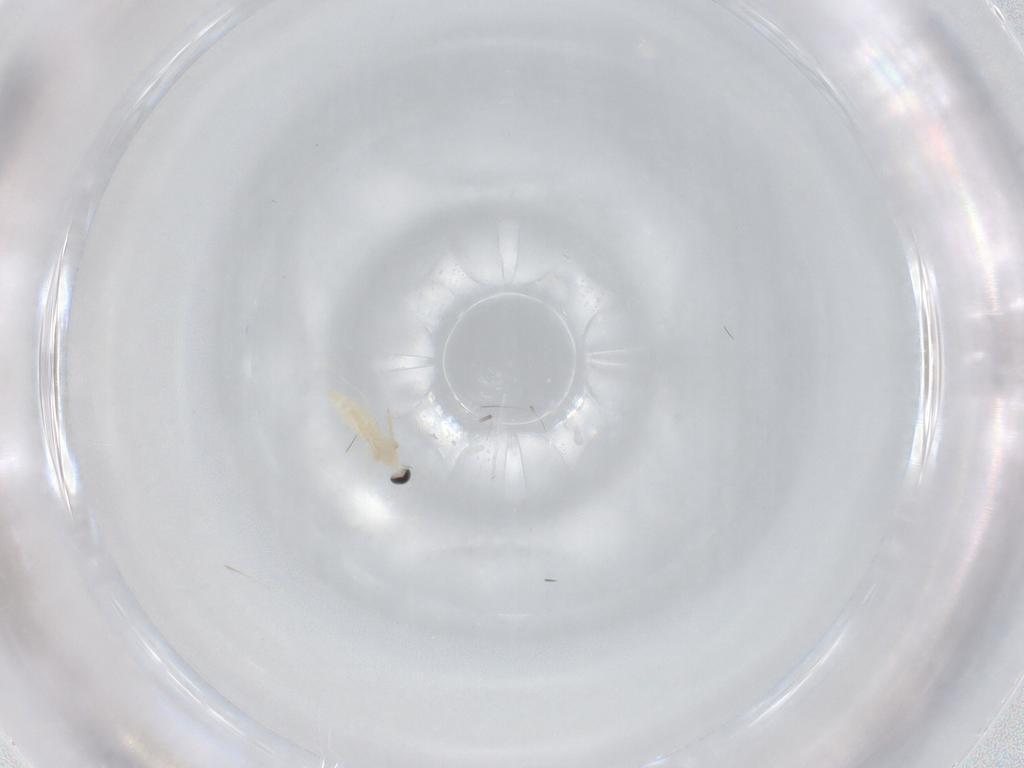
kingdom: Animalia
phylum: Arthropoda
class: Insecta
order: Diptera
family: Cecidomyiidae
